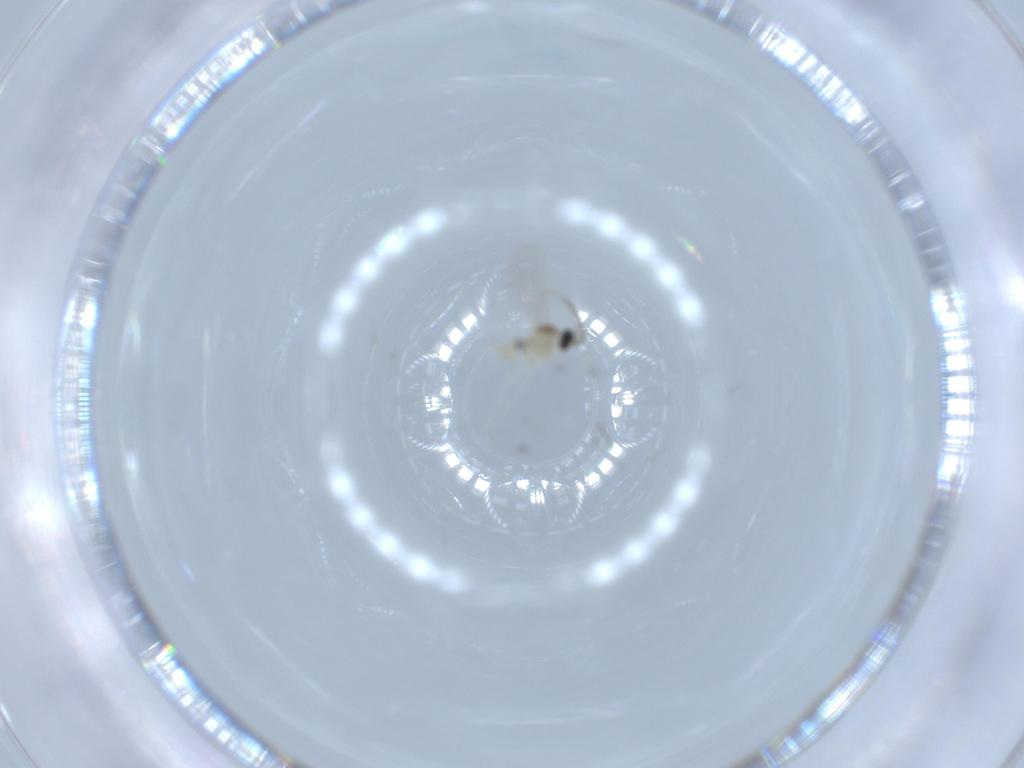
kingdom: Animalia
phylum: Arthropoda
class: Insecta
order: Diptera
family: Cecidomyiidae
